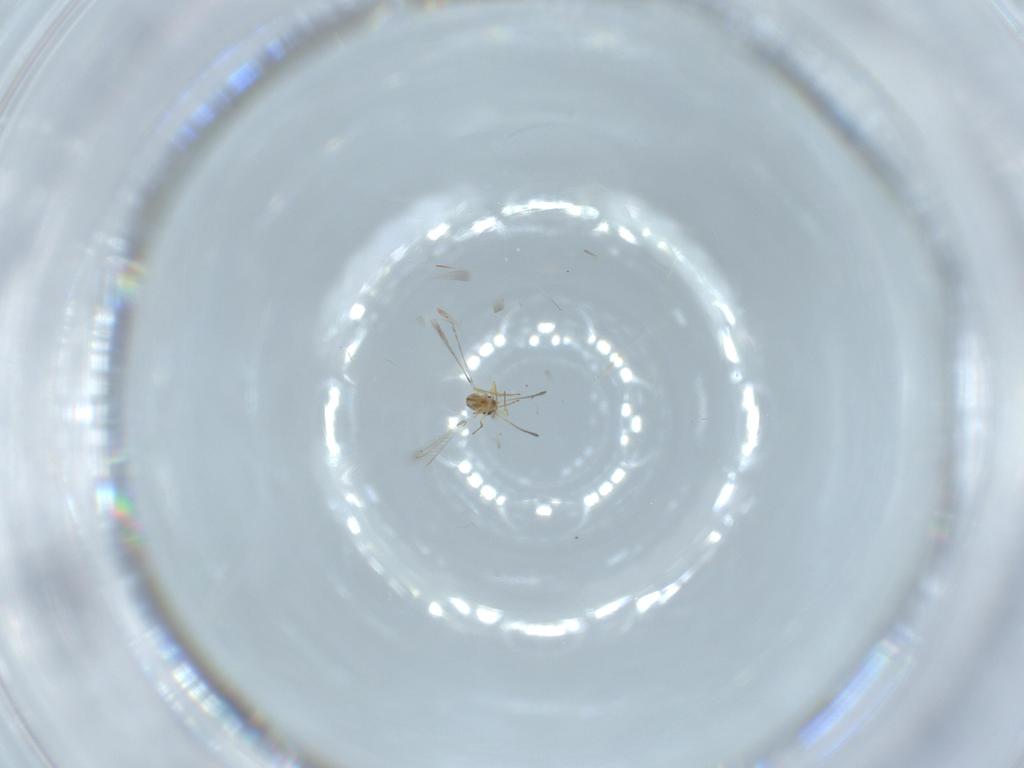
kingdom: Animalia
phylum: Arthropoda
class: Insecta
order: Hymenoptera
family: Mymaridae
